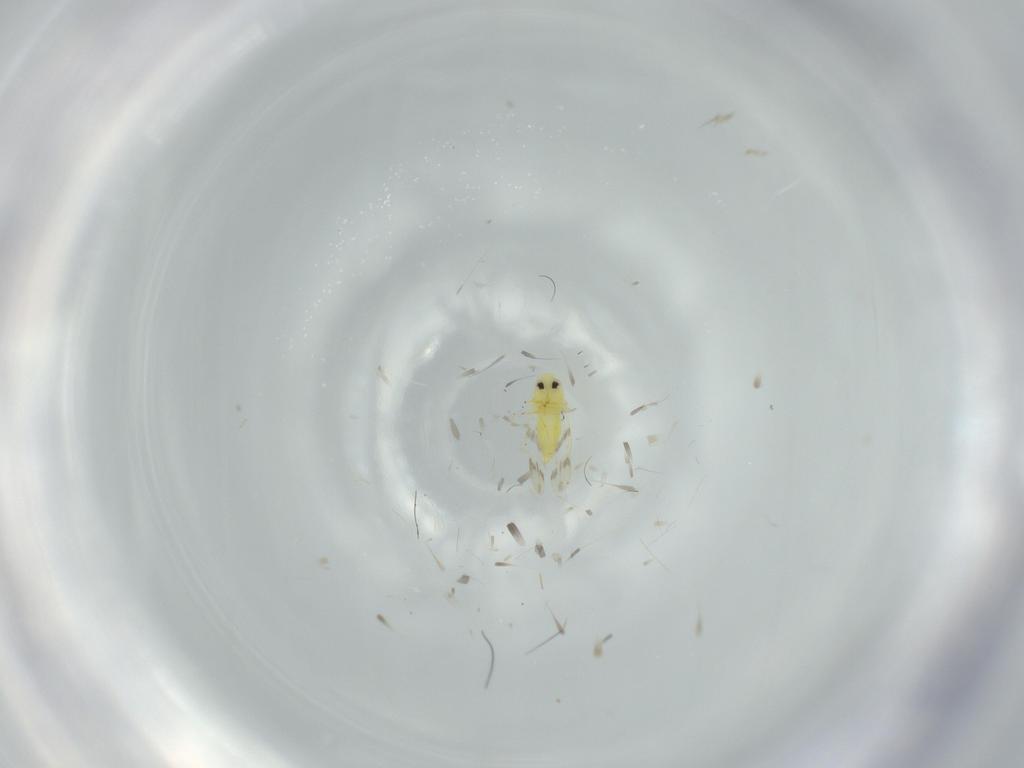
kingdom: Animalia
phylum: Arthropoda
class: Insecta
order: Hemiptera
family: Aleyrodidae
